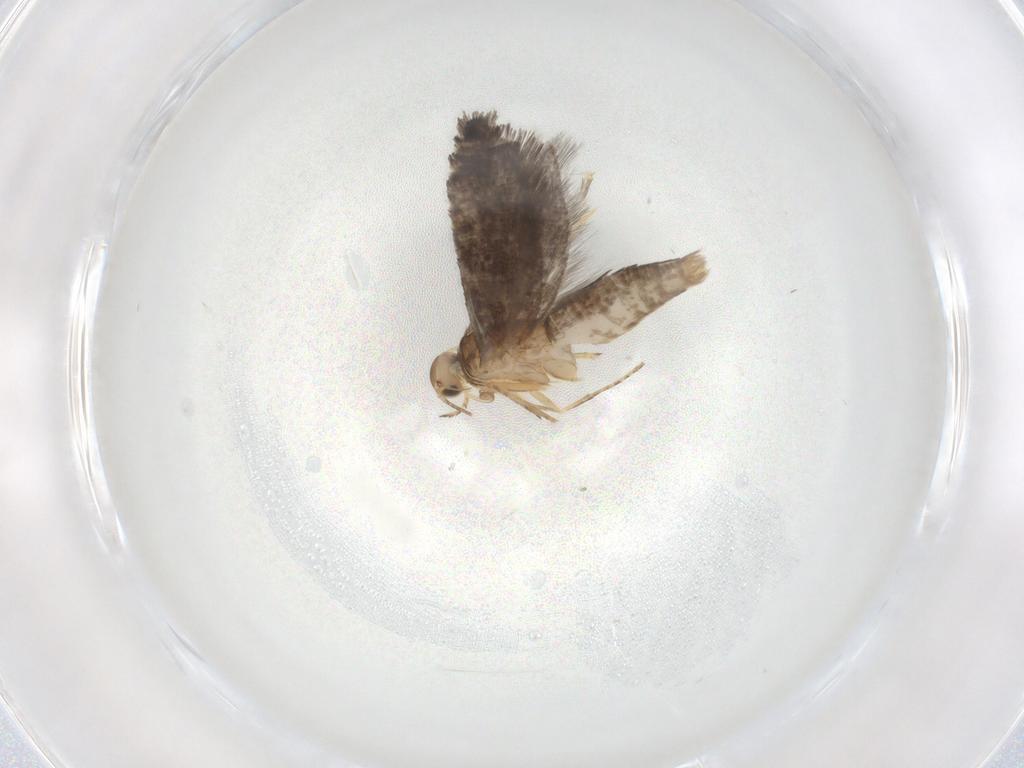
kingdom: Animalia
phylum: Arthropoda
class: Insecta
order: Lepidoptera
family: Glyphipterigidae
